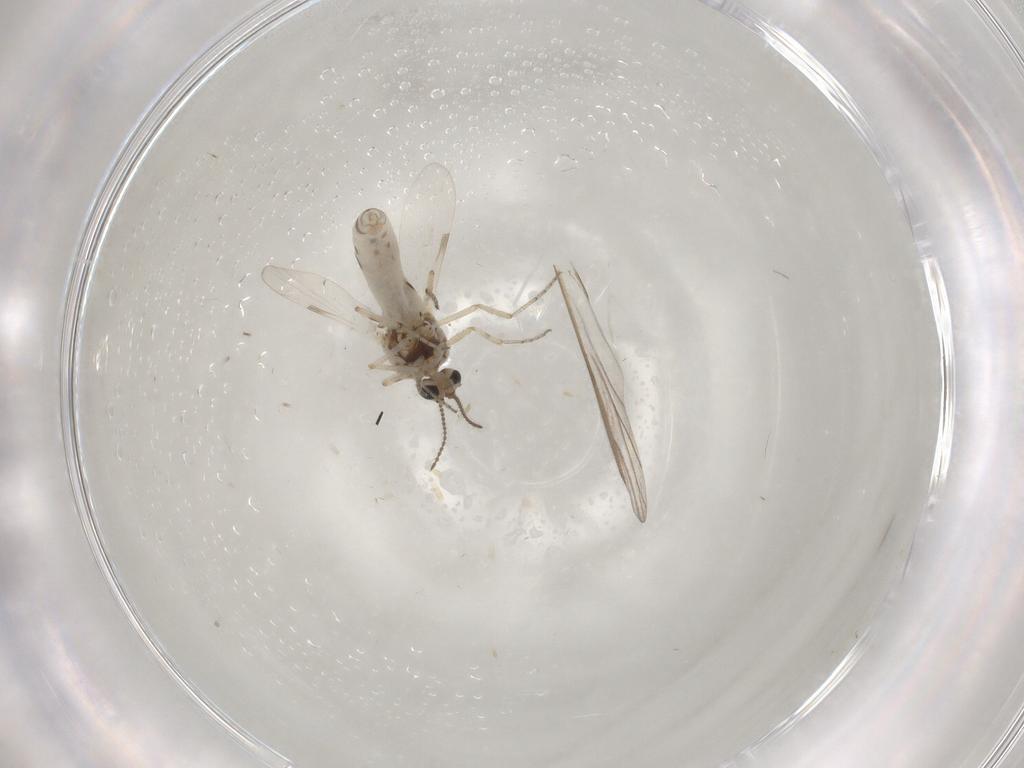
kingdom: Animalia
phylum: Arthropoda
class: Insecta
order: Diptera
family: Ceratopogonidae
